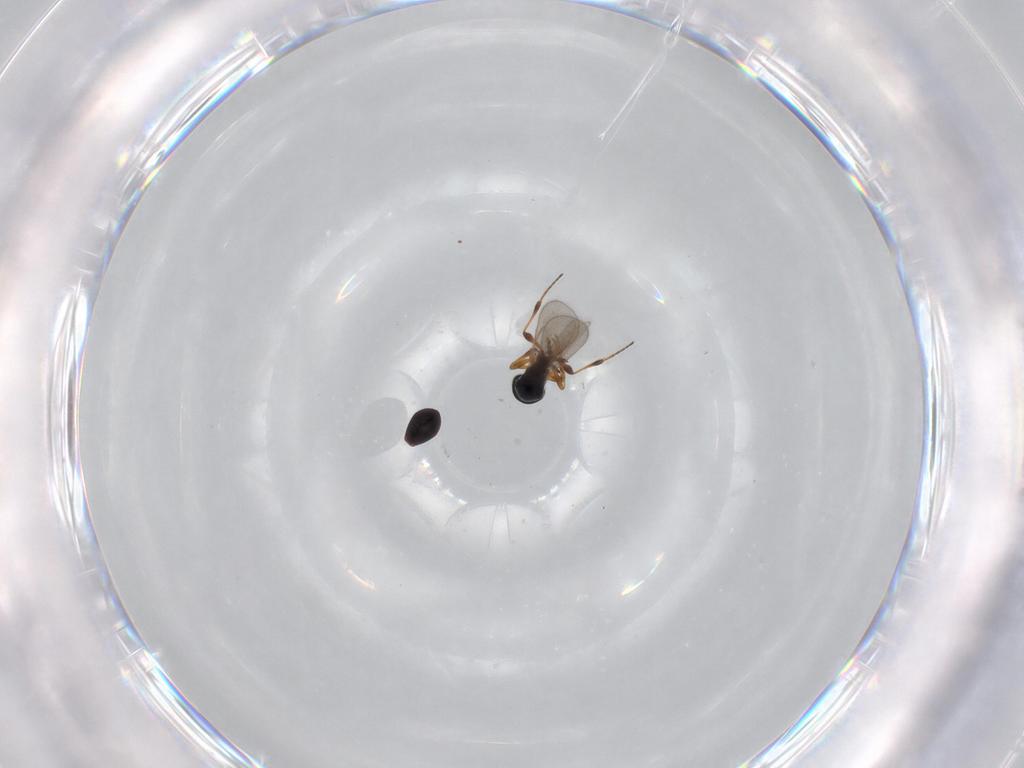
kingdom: Animalia
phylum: Arthropoda
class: Insecta
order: Hymenoptera
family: Platygastridae
